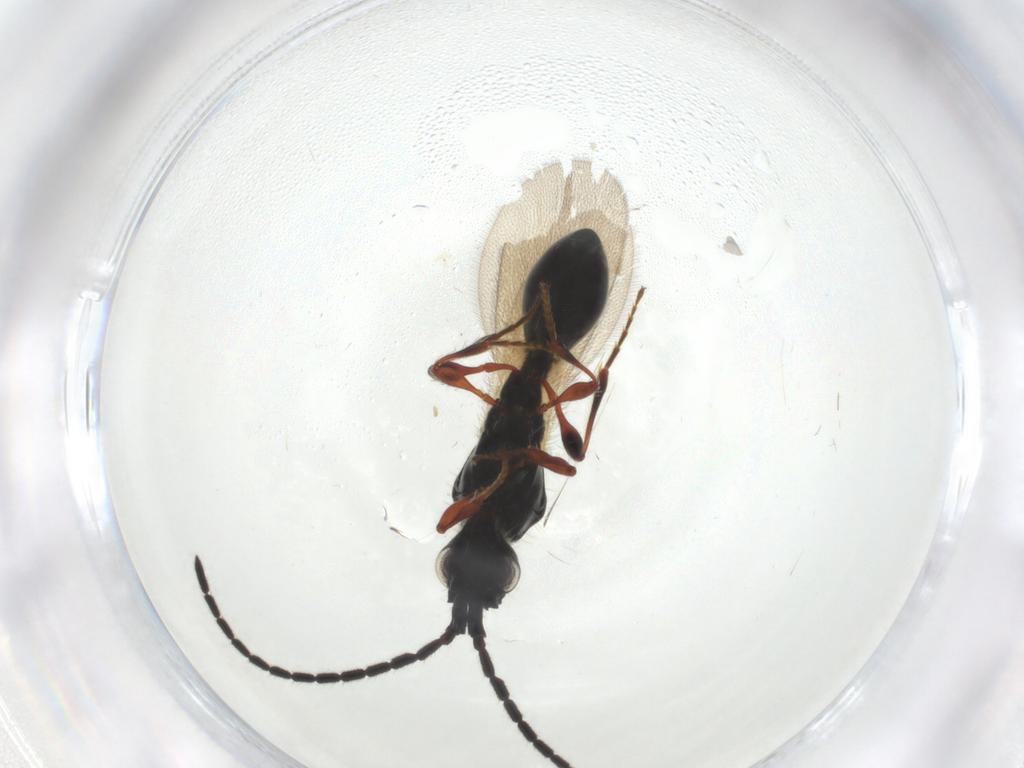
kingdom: Animalia
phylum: Arthropoda
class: Insecta
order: Hymenoptera
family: Diapriidae
